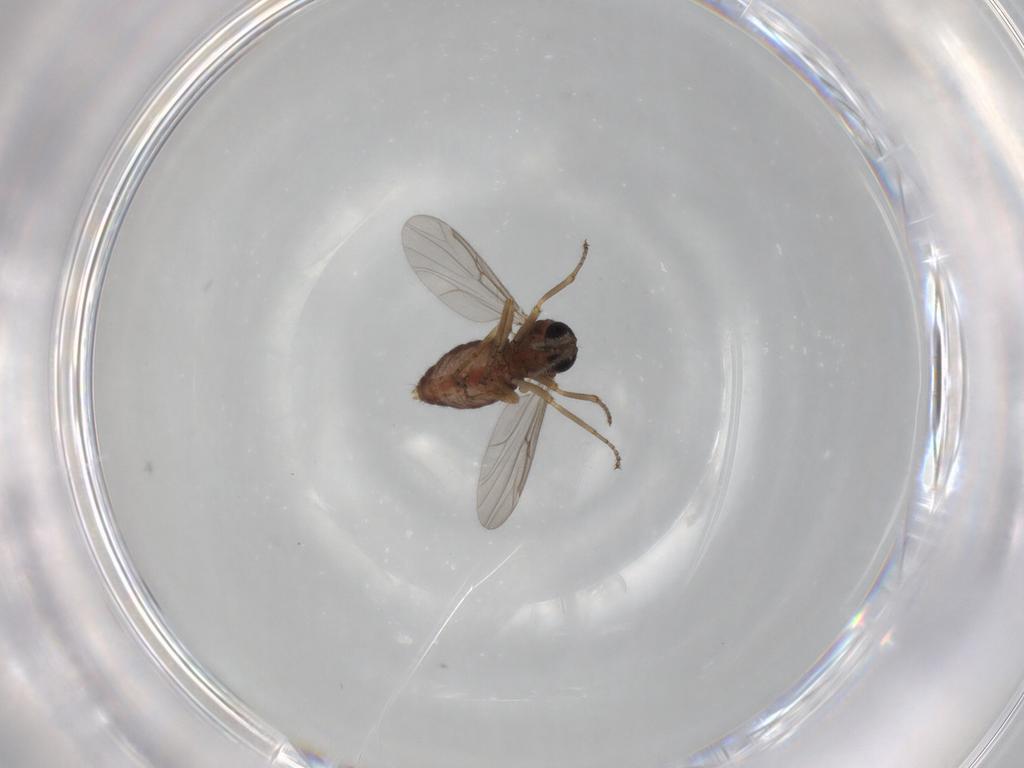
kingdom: Animalia
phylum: Arthropoda
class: Insecta
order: Diptera
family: Ceratopogonidae
